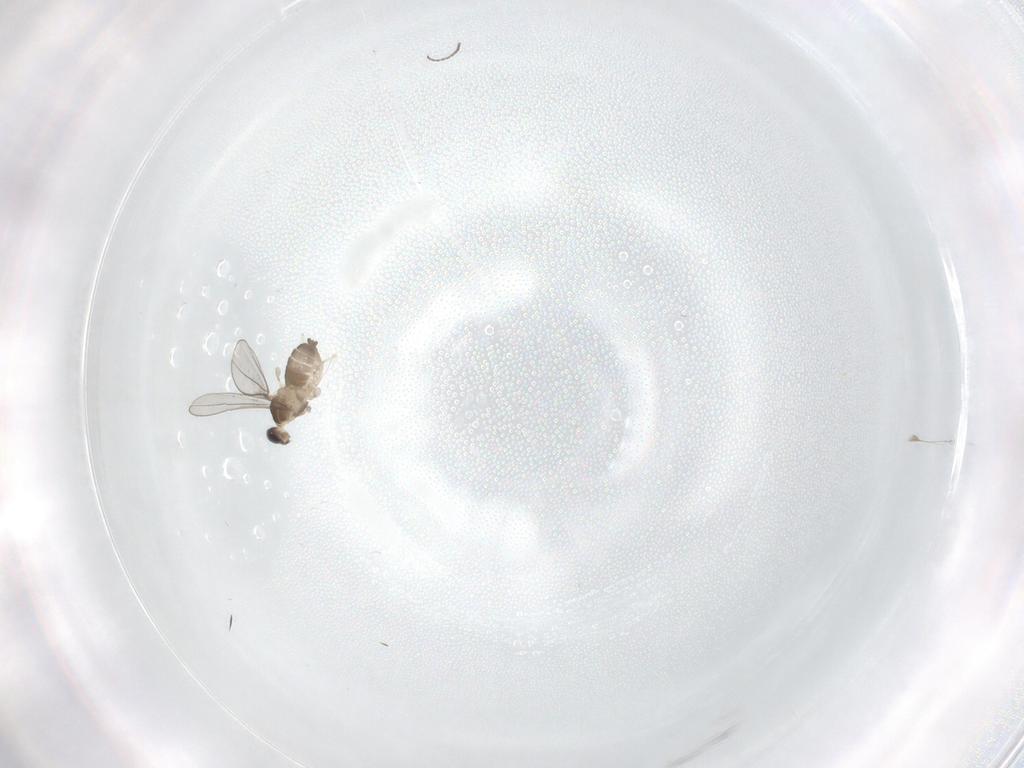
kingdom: Animalia
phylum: Arthropoda
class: Insecta
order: Diptera
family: Cecidomyiidae
